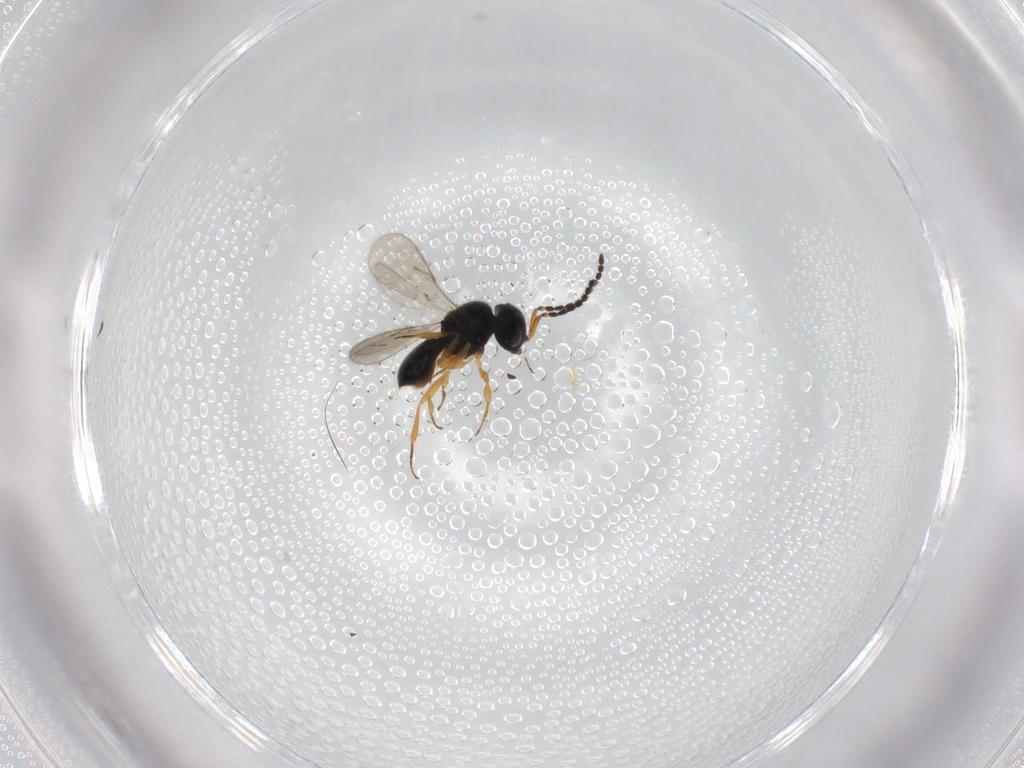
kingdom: Animalia
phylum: Arthropoda
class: Insecta
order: Hymenoptera
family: Scelionidae
